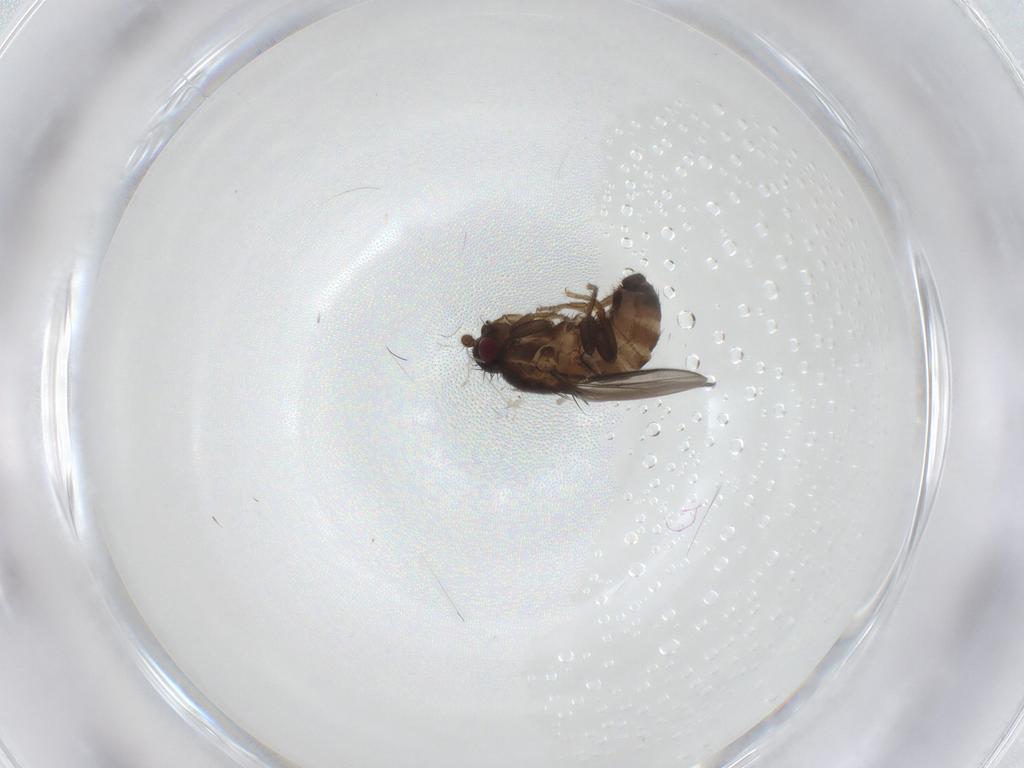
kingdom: Animalia
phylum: Arthropoda
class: Insecta
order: Diptera
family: Sphaeroceridae
